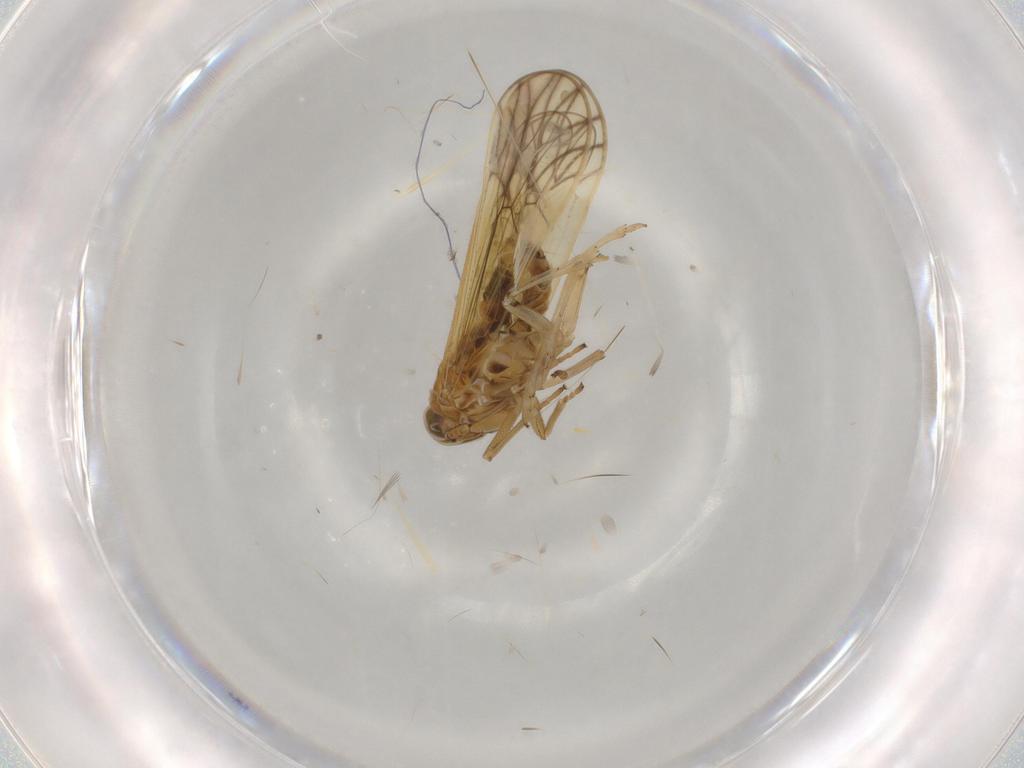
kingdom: Animalia
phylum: Arthropoda
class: Insecta
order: Hemiptera
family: Delphacidae
